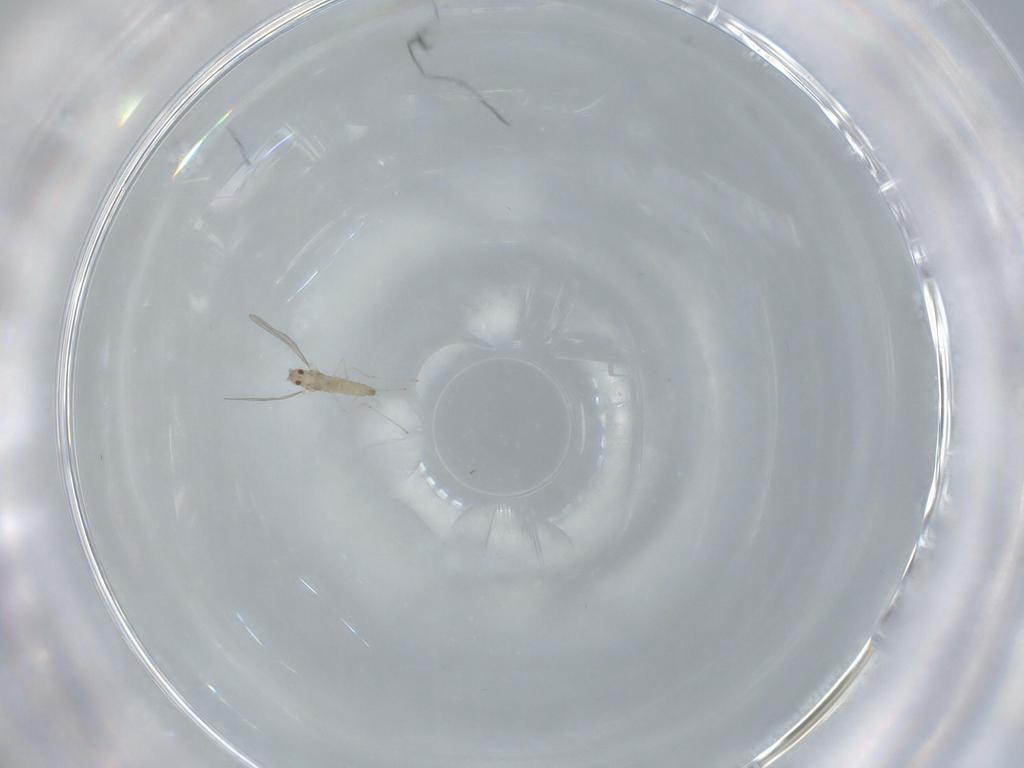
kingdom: Animalia
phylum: Arthropoda
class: Insecta
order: Diptera
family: Cecidomyiidae
